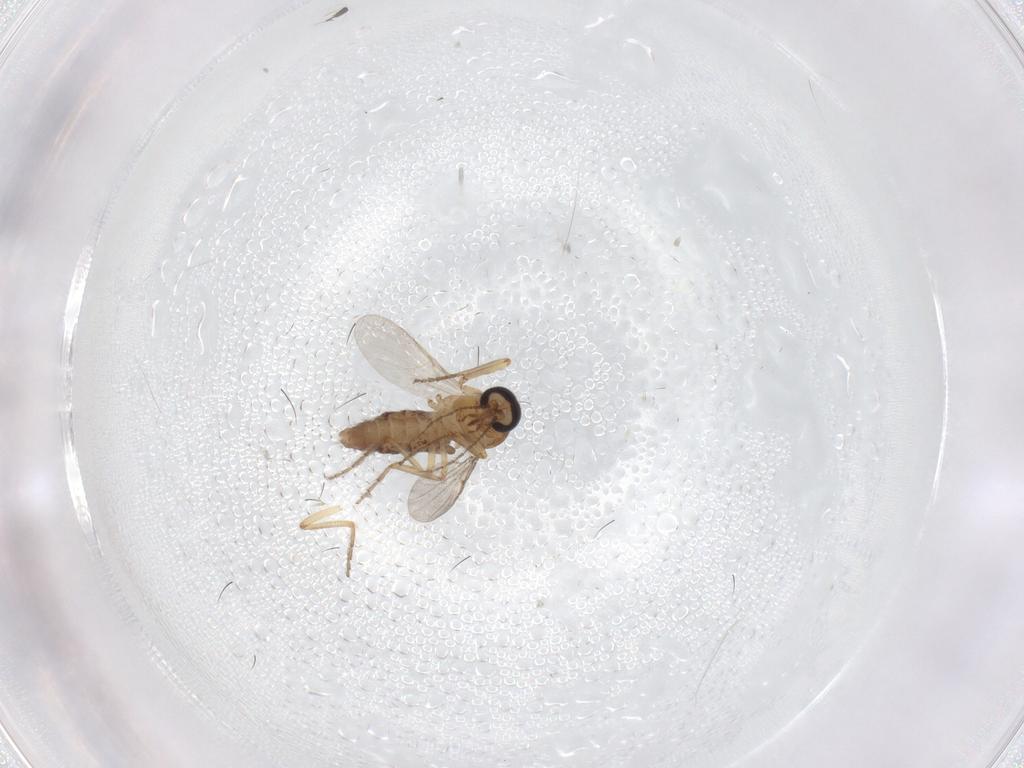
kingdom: Animalia
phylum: Arthropoda
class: Insecta
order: Diptera
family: Ceratopogonidae
